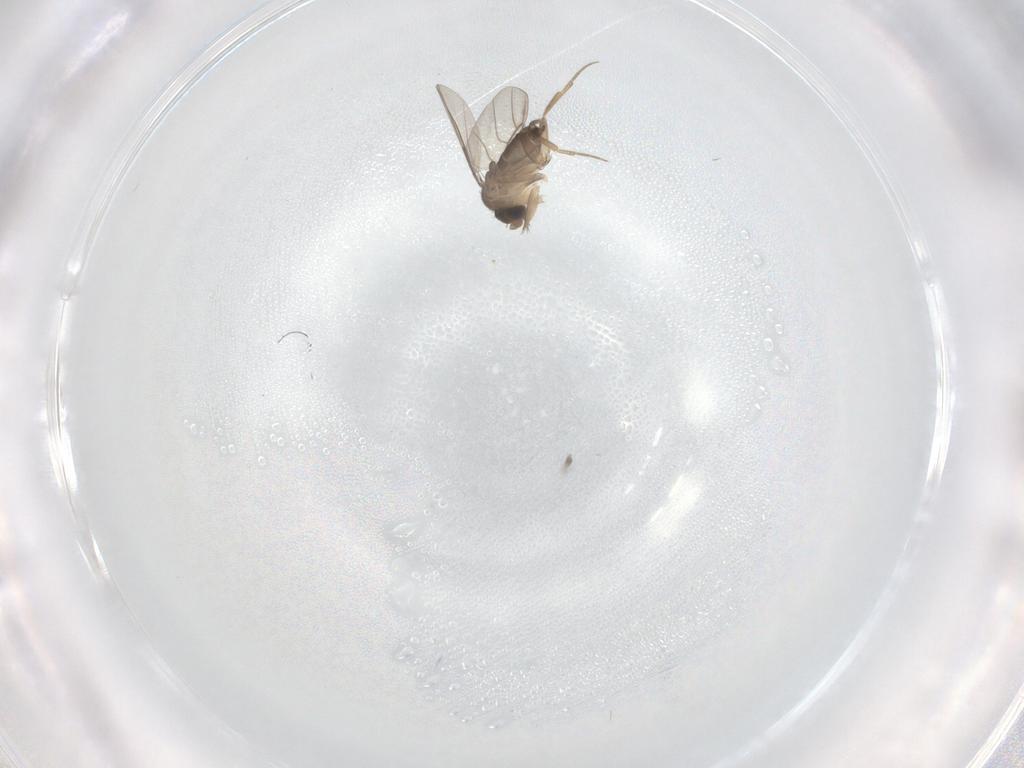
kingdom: Animalia
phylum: Arthropoda
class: Insecta
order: Diptera
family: Phoridae
